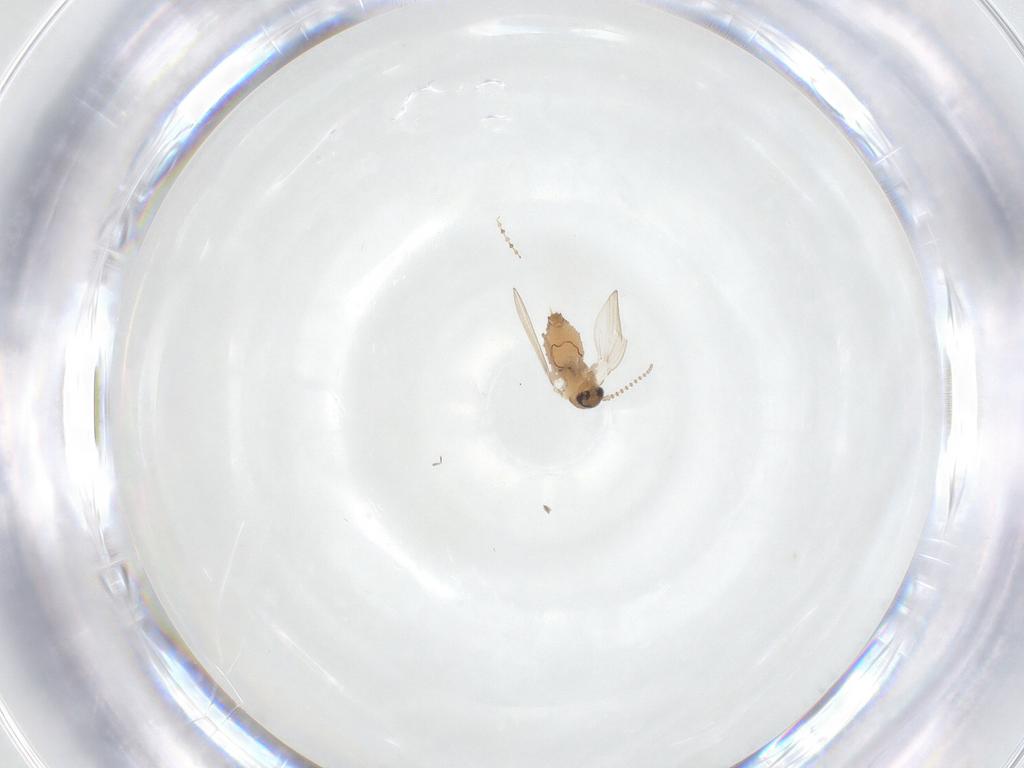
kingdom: Animalia
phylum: Arthropoda
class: Insecta
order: Diptera
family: Psychodidae
